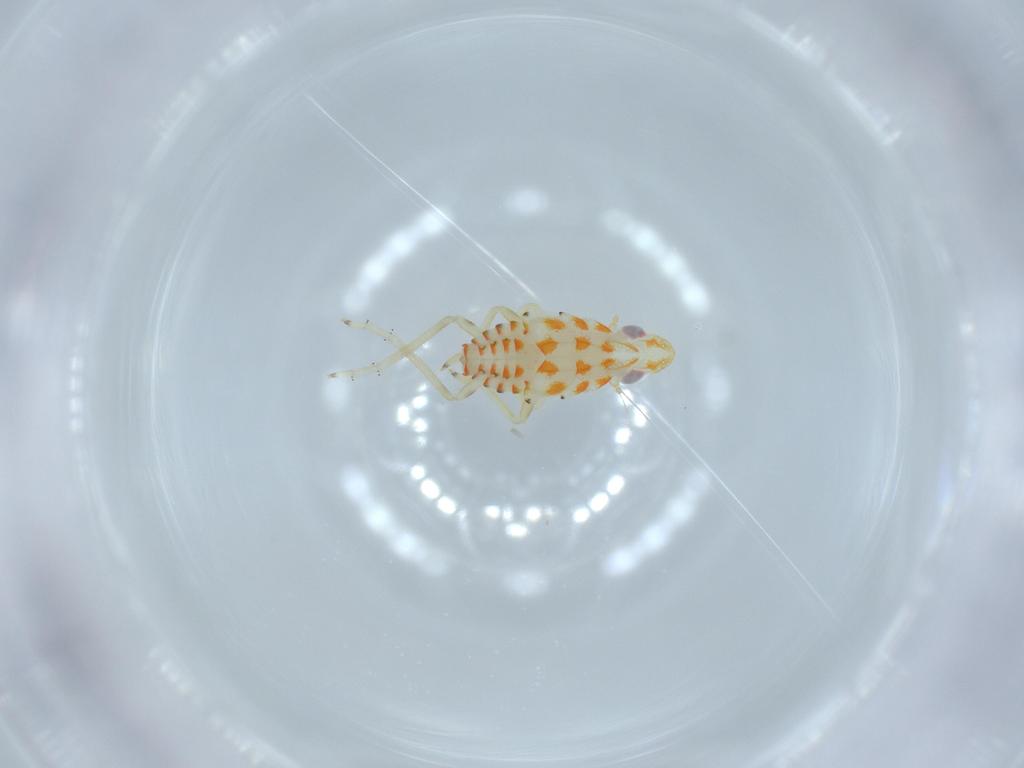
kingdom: Animalia
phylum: Arthropoda
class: Insecta
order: Hemiptera
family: Tropiduchidae
